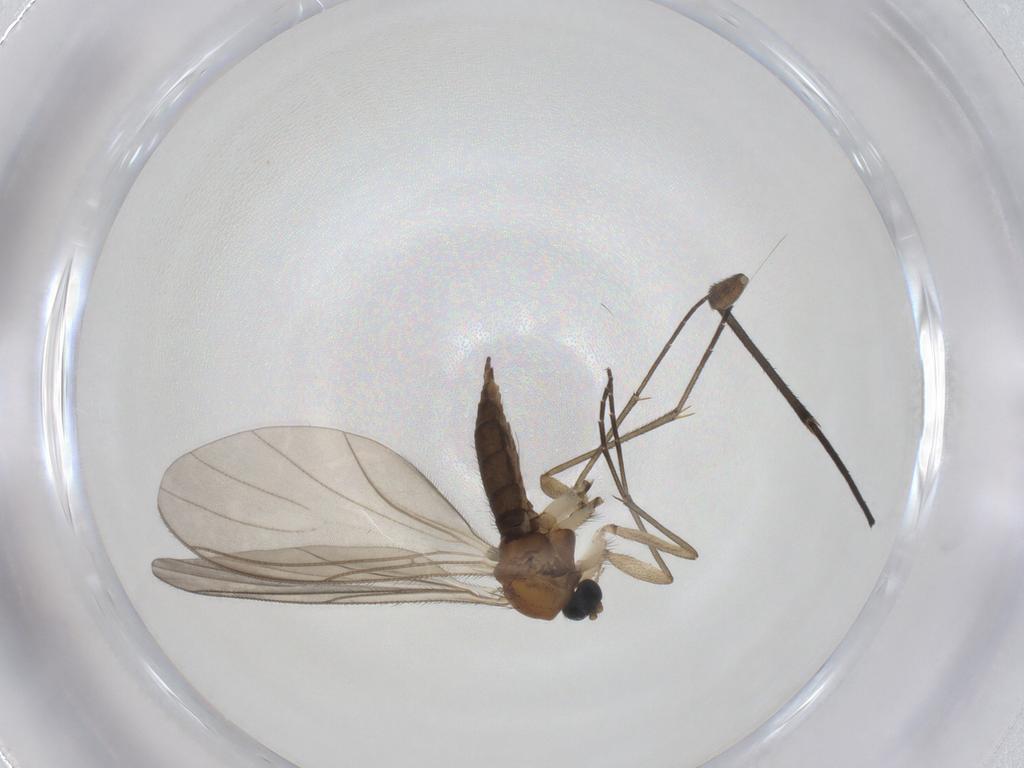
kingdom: Animalia
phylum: Arthropoda
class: Insecta
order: Diptera
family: Sciaridae
